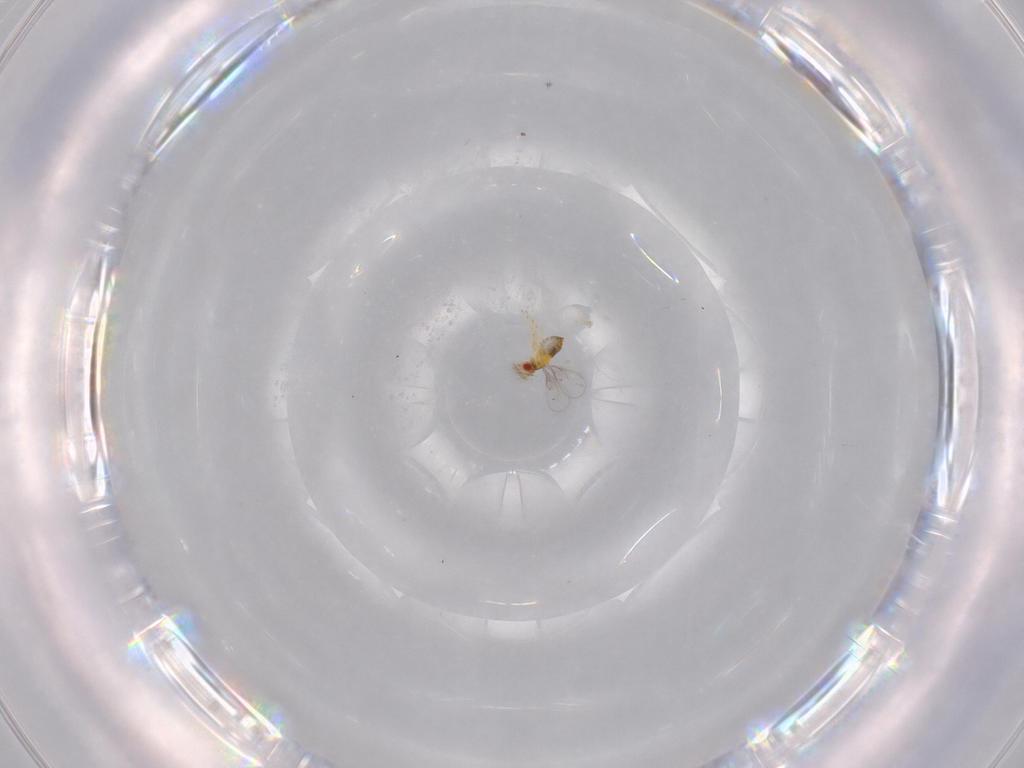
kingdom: Animalia
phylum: Arthropoda
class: Insecta
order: Hymenoptera
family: Trichogrammatidae
